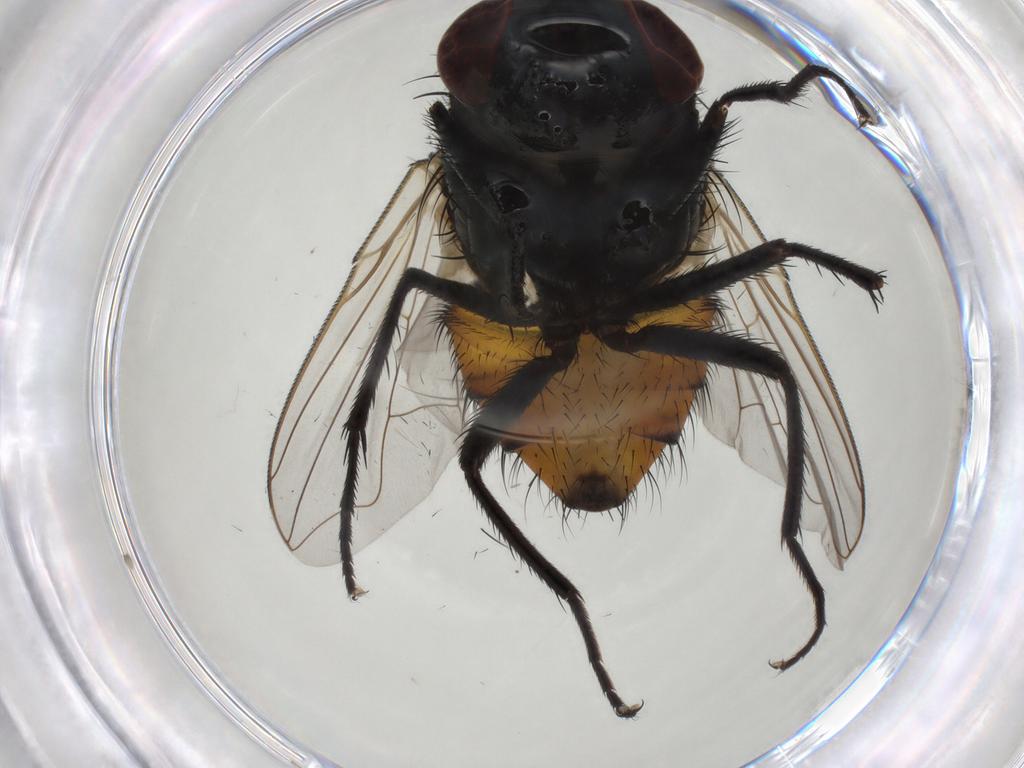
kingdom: Animalia
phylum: Arthropoda
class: Insecta
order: Diptera
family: Muscidae
